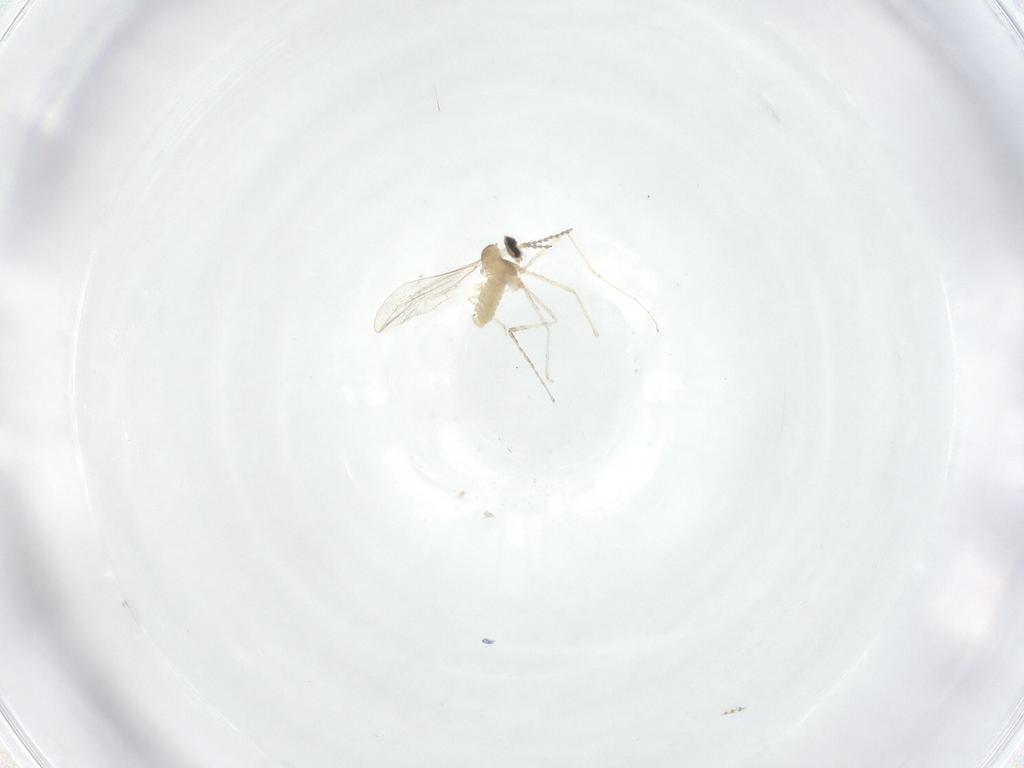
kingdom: Animalia
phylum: Arthropoda
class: Insecta
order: Diptera
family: Cecidomyiidae
